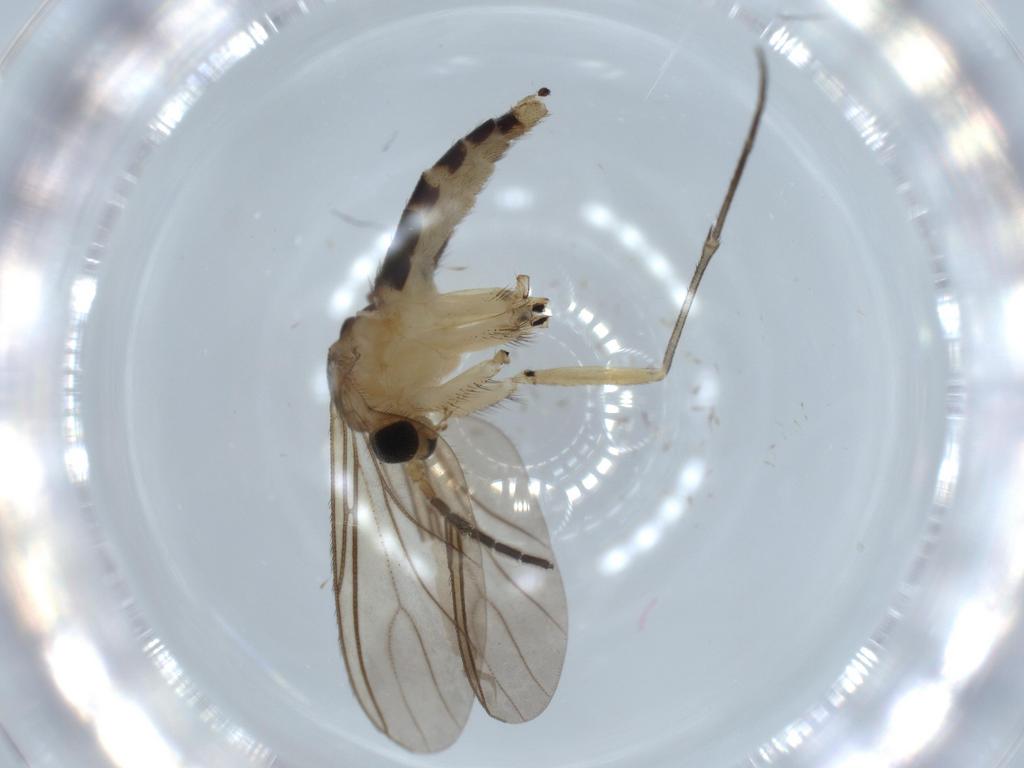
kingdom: Animalia
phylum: Arthropoda
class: Insecta
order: Diptera
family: Sciaridae
